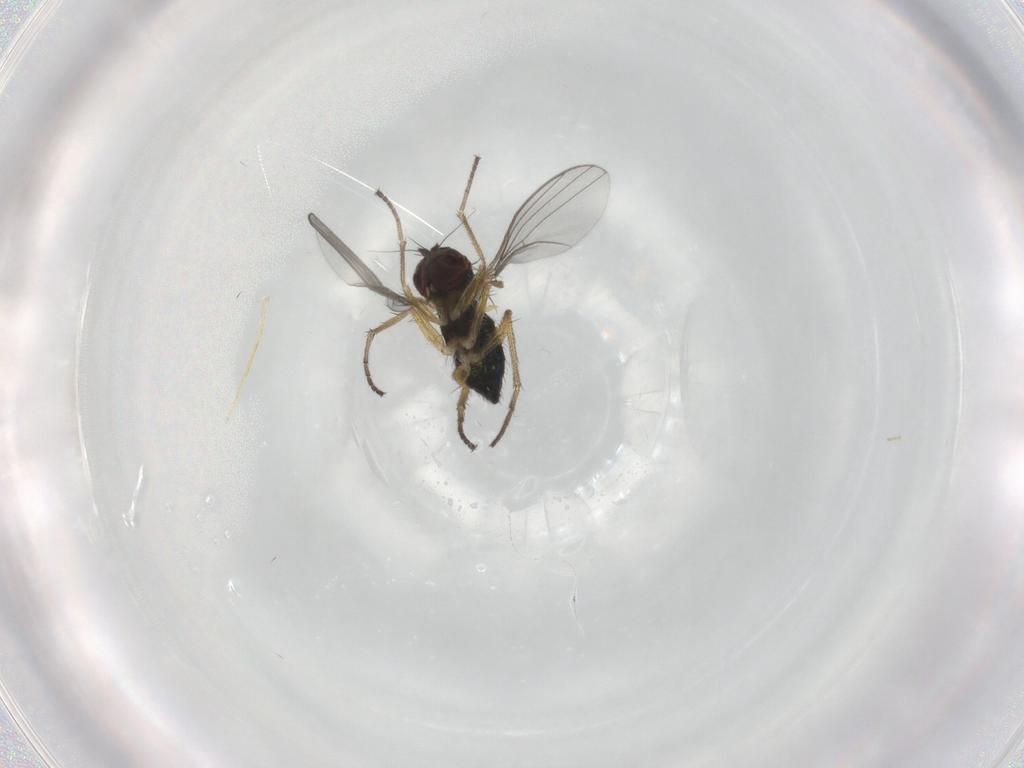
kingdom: Animalia
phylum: Arthropoda
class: Insecta
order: Diptera
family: Dolichopodidae
